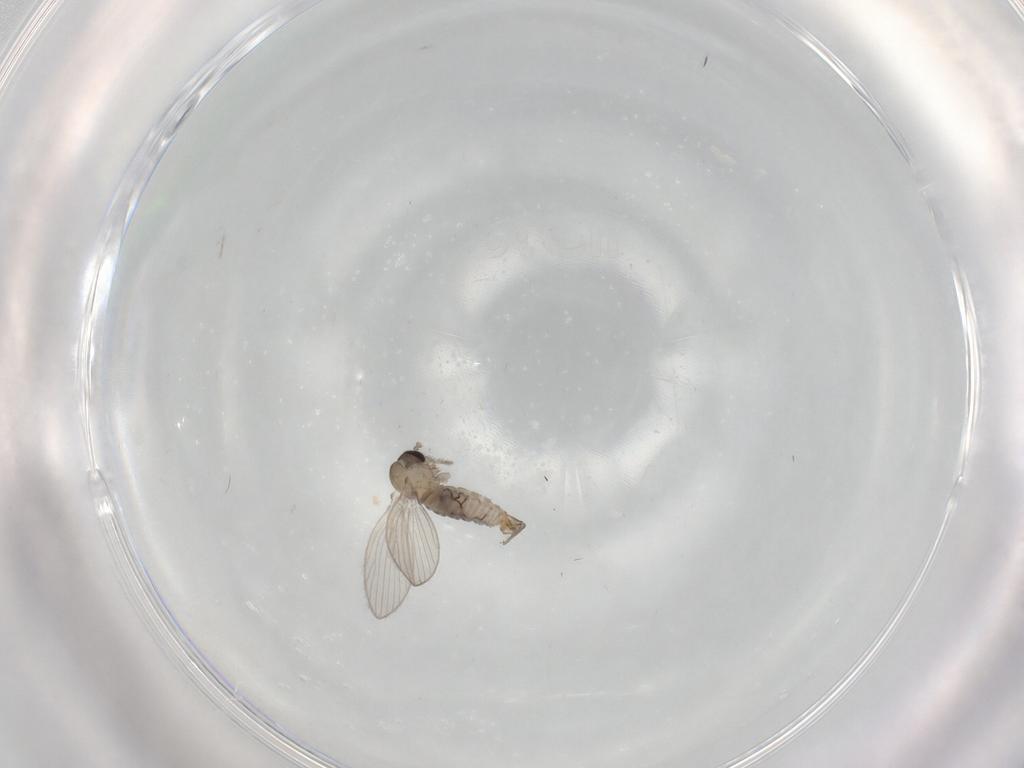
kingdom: Animalia
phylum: Arthropoda
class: Insecta
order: Diptera
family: Psychodidae
